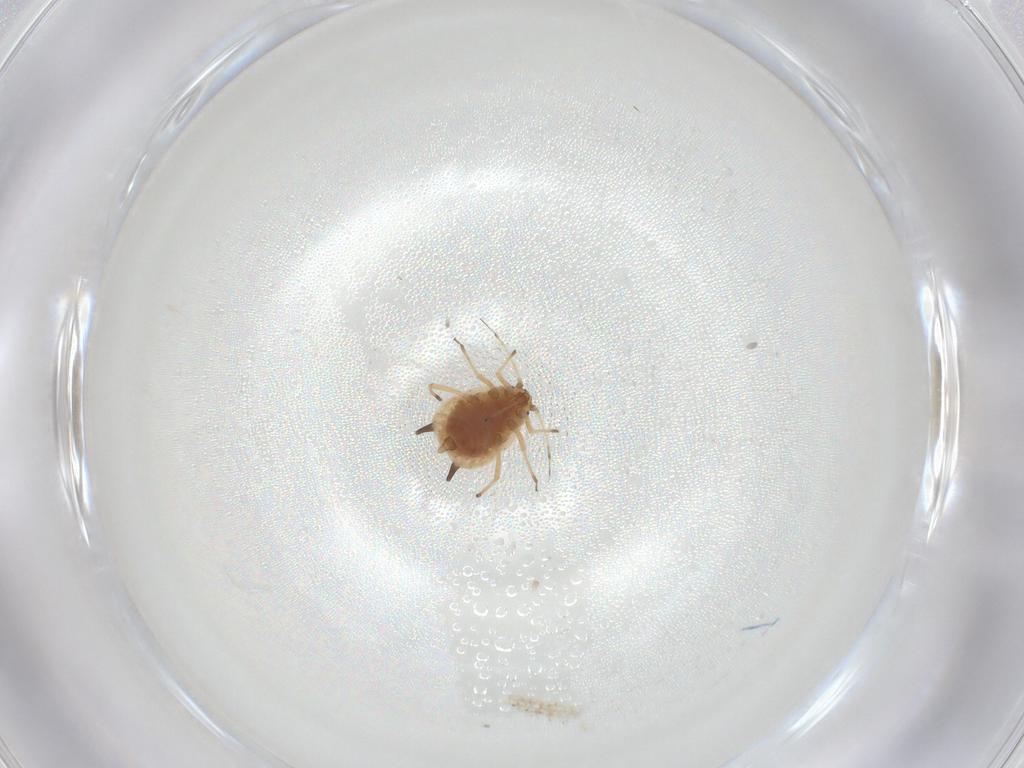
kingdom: Animalia
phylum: Arthropoda
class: Insecta
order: Hemiptera
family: Aphididae
